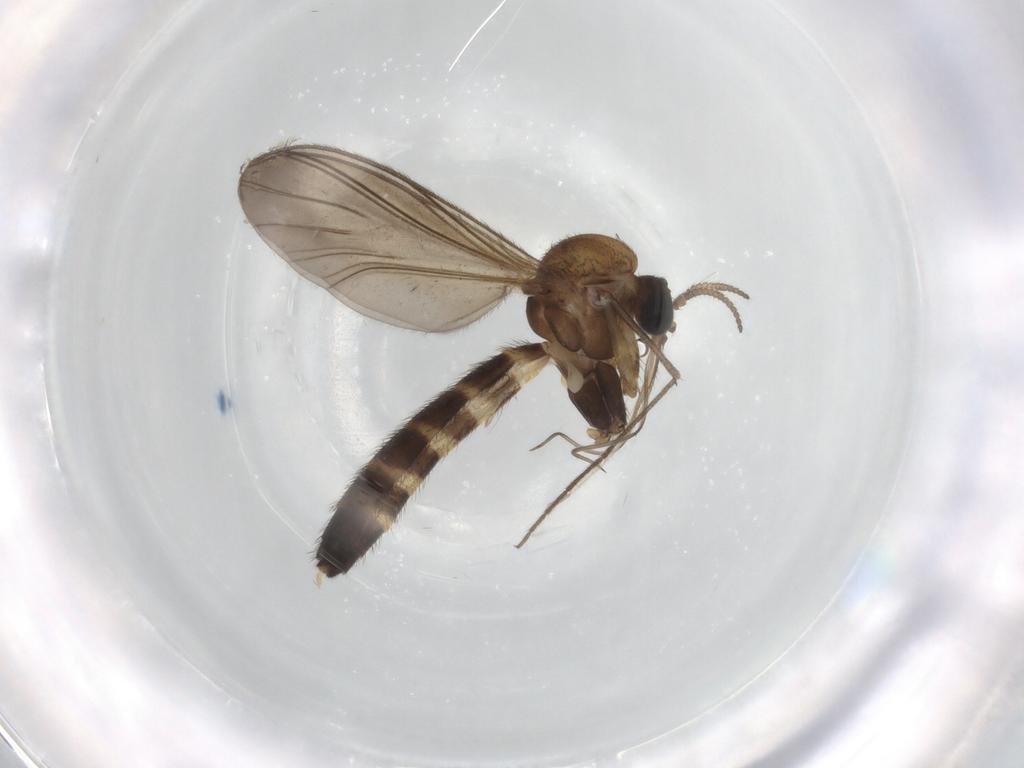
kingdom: Animalia
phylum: Arthropoda
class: Insecta
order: Diptera
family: Keroplatidae
